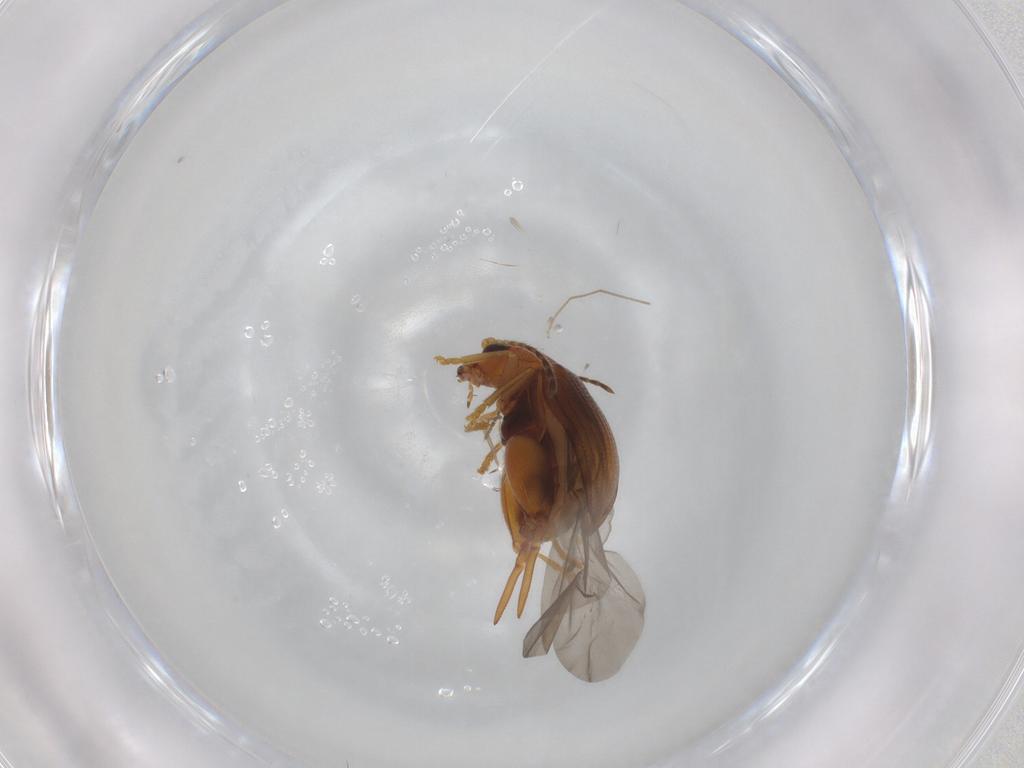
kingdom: Animalia
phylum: Arthropoda
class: Insecta
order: Coleoptera
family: Chrysomelidae
